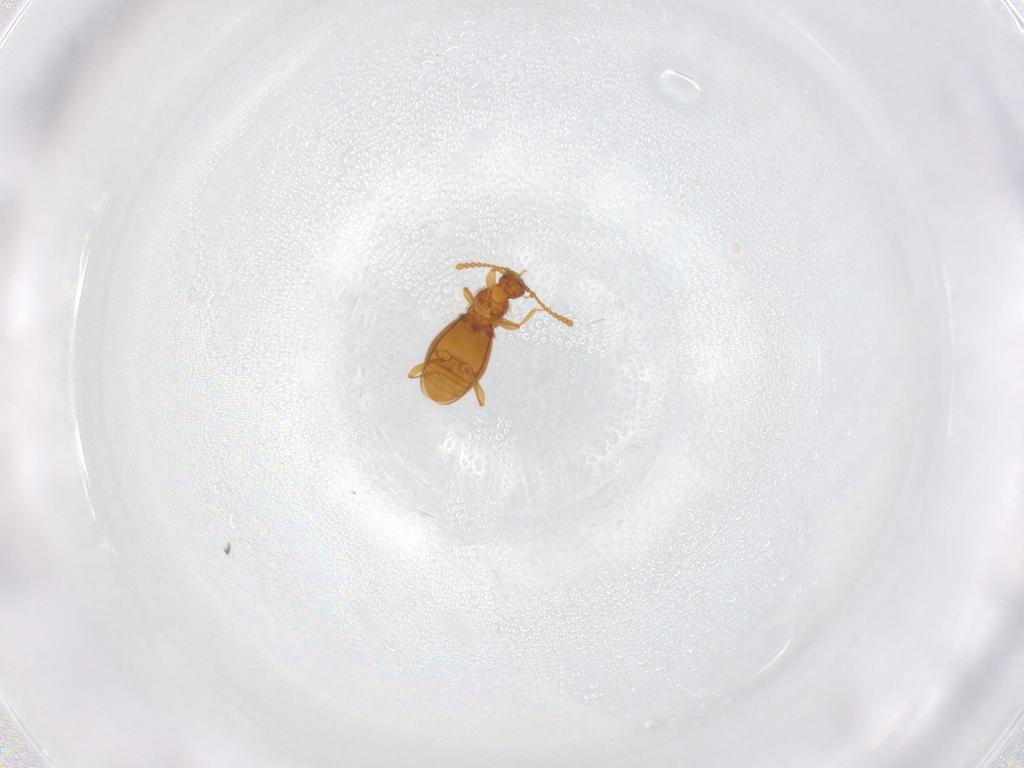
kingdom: Animalia
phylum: Arthropoda
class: Insecta
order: Coleoptera
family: Staphylinidae
